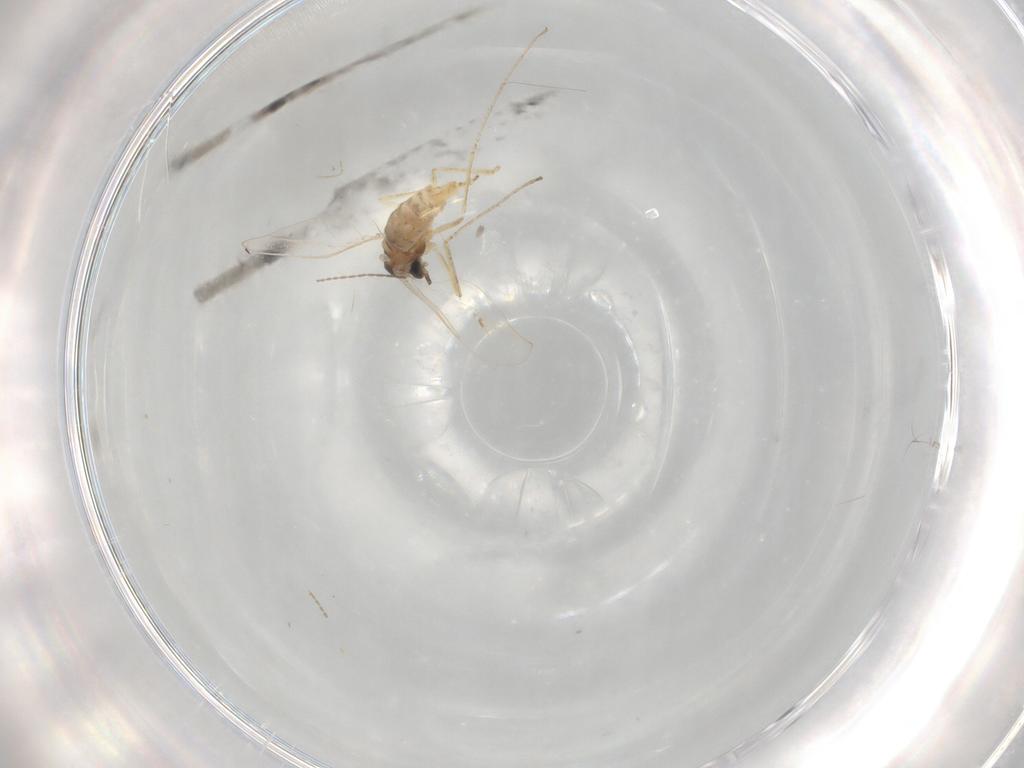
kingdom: Animalia
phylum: Arthropoda
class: Insecta
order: Diptera
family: Cecidomyiidae
